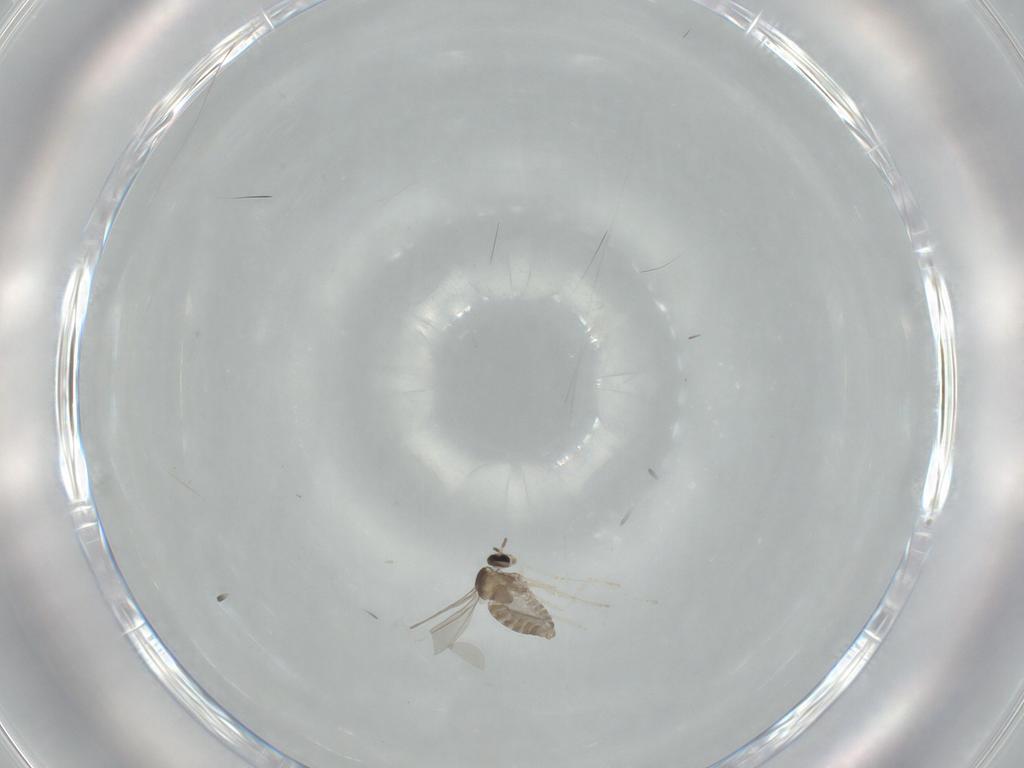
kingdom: Animalia
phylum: Arthropoda
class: Insecta
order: Diptera
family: Cecidomyiidae
